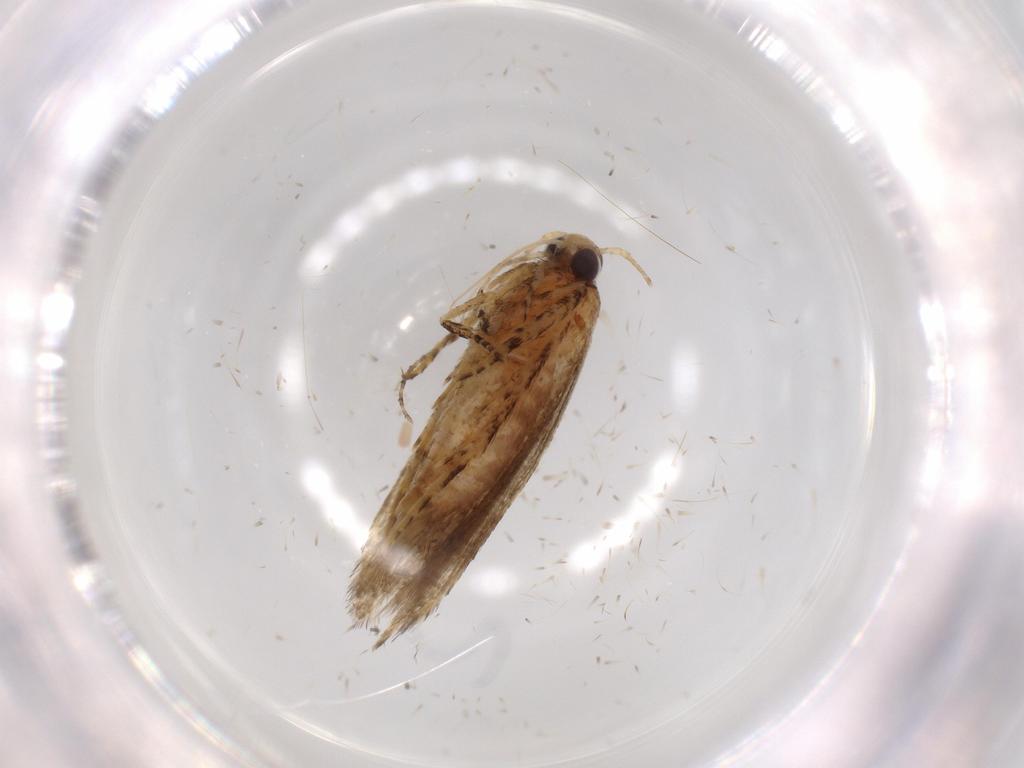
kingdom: Animalia
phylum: Arthropoda
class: Insecta
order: Lepidoptera
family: Gelechiidae
